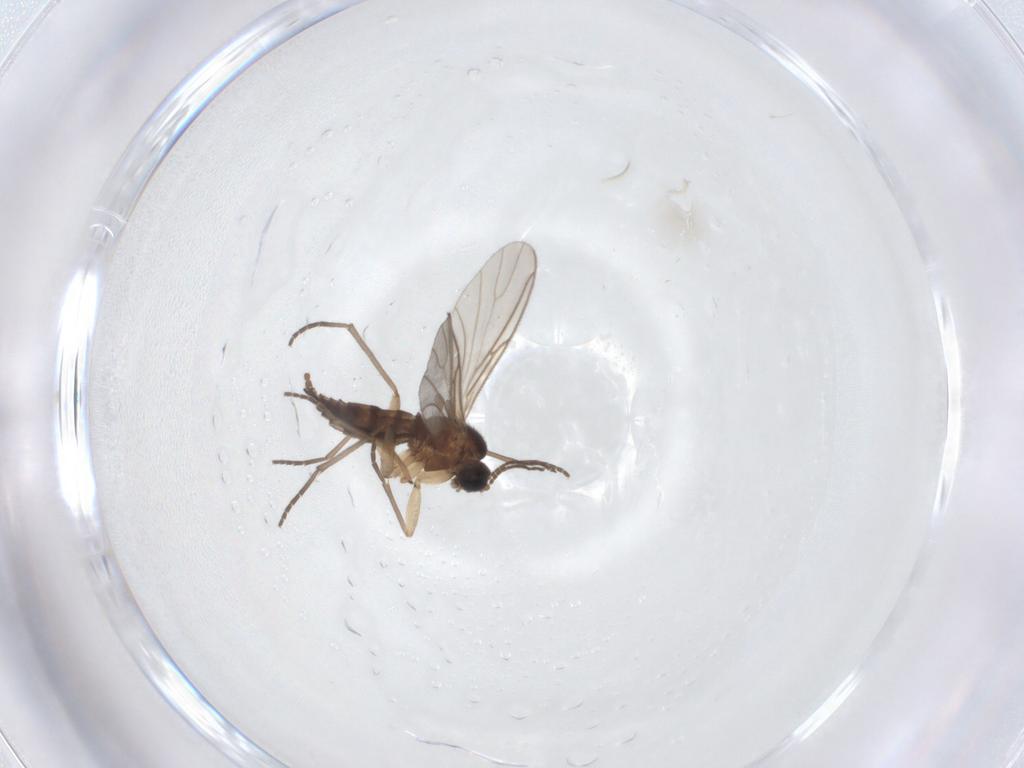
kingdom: Animalia
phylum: Arthropoda
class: Insecta
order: Diptera
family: Sciaridae
